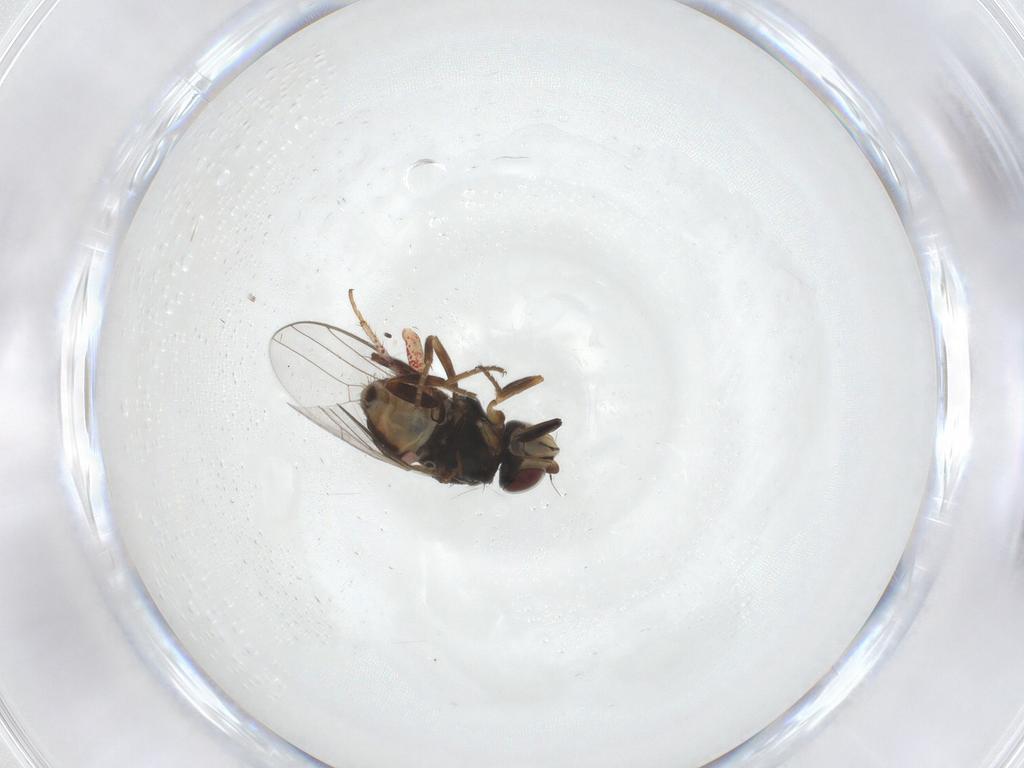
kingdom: Animalia
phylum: Arthropoda
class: Insecta
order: Diptera
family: Chloropidae
